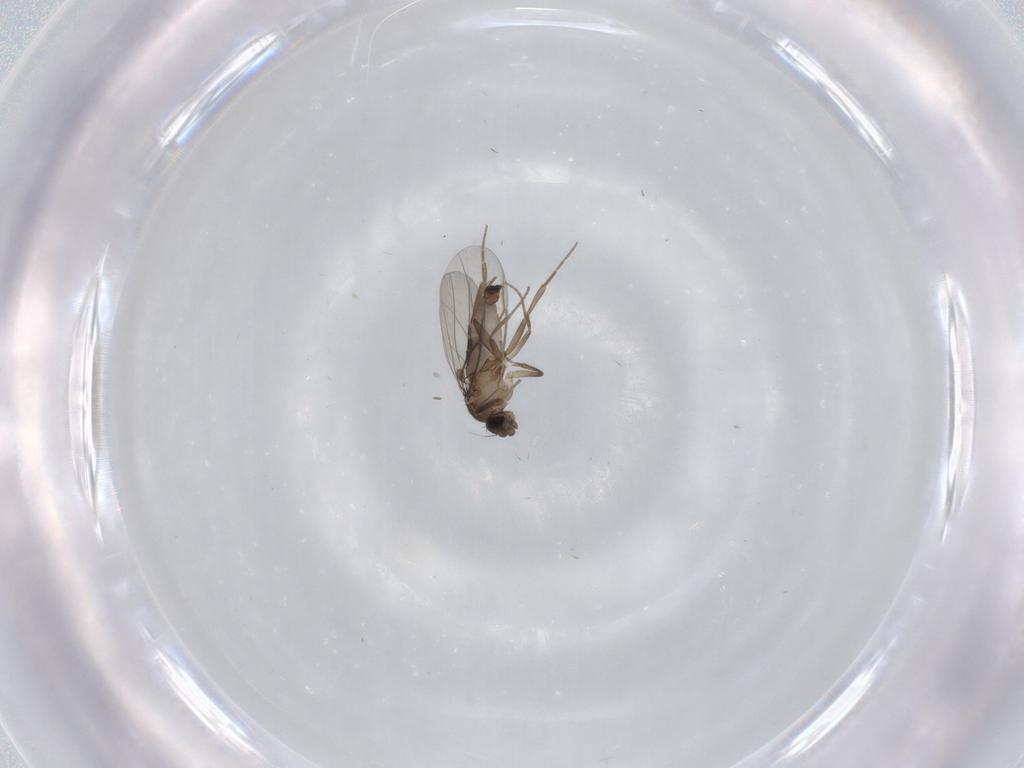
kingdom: Animalia
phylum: Arthropoda
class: Insecta
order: Diptera
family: Phoridae
